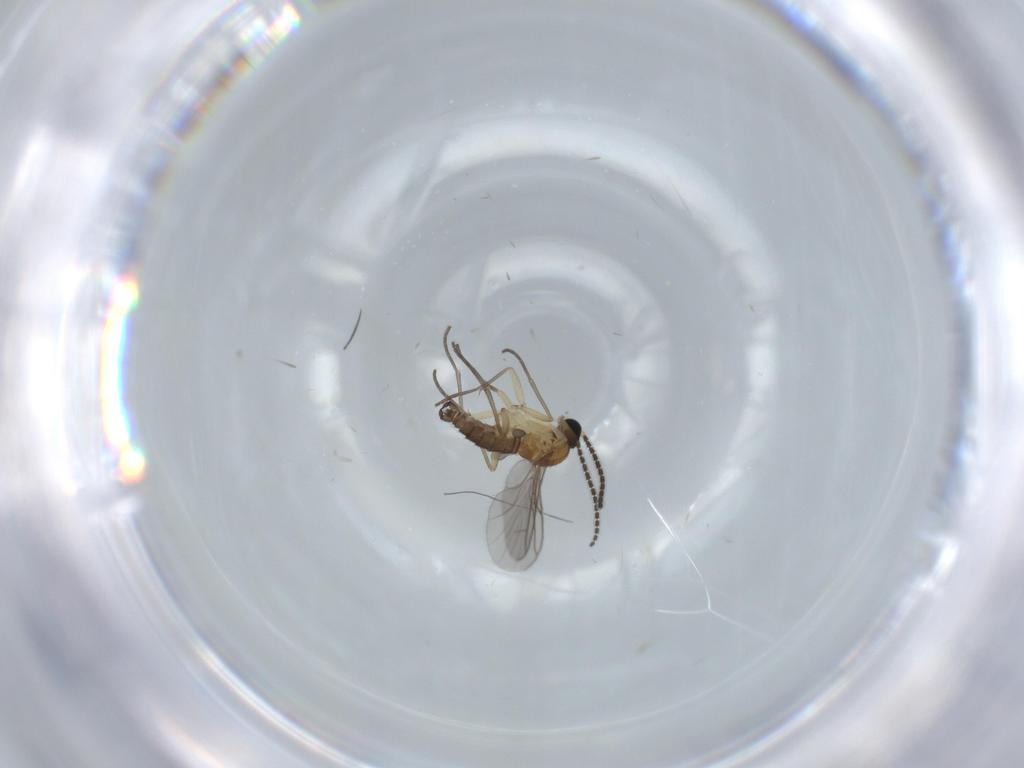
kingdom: Animalia
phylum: Arthropoda
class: Insecta
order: Diptera
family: Sciaridae
